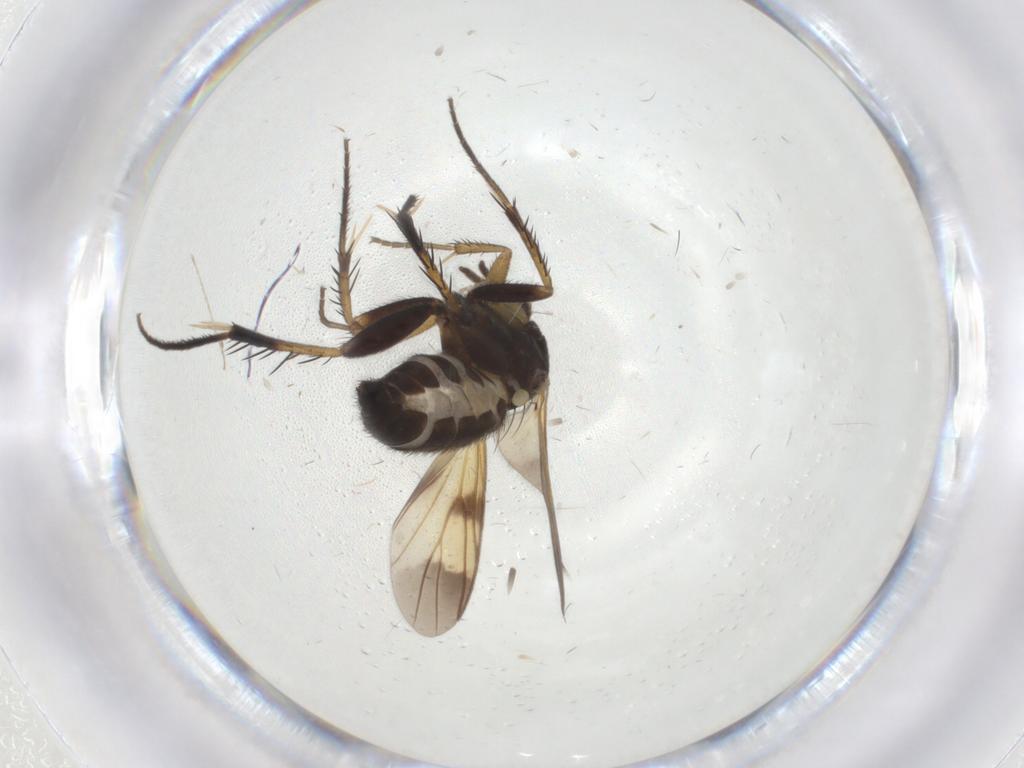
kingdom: Animalia
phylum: Arthropoda
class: Insecta
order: Diptera
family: Mycetophilidae
